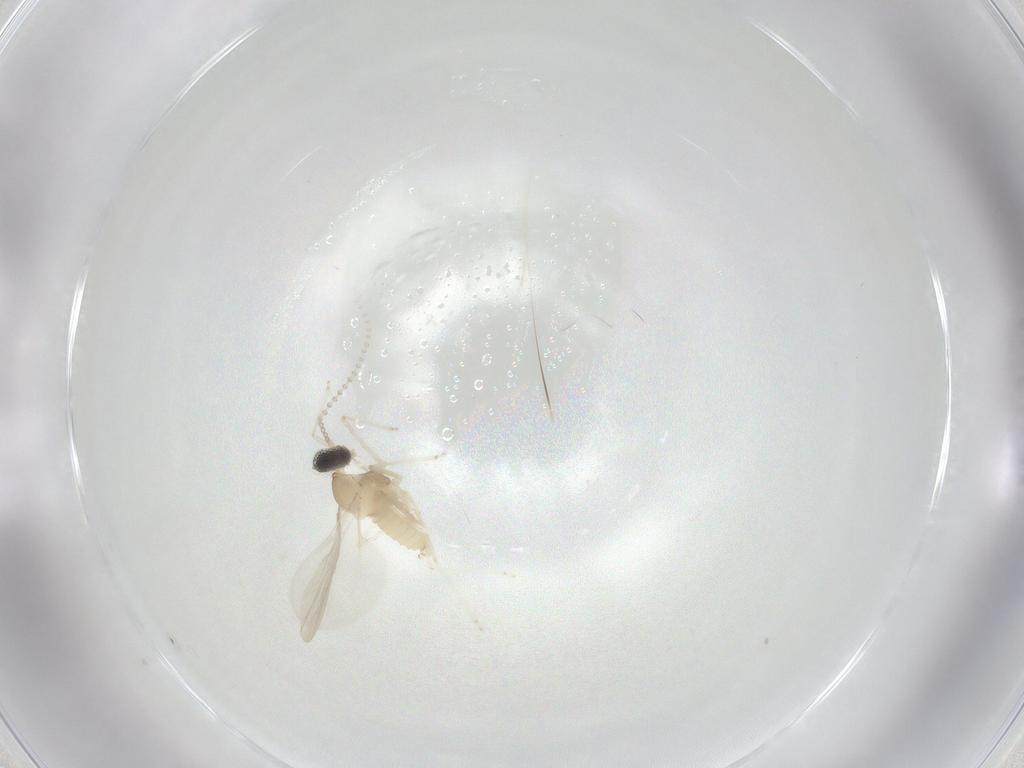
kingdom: Animalia
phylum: Arthropoda
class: Insecta
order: Diptera
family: Cecidomyiidae
